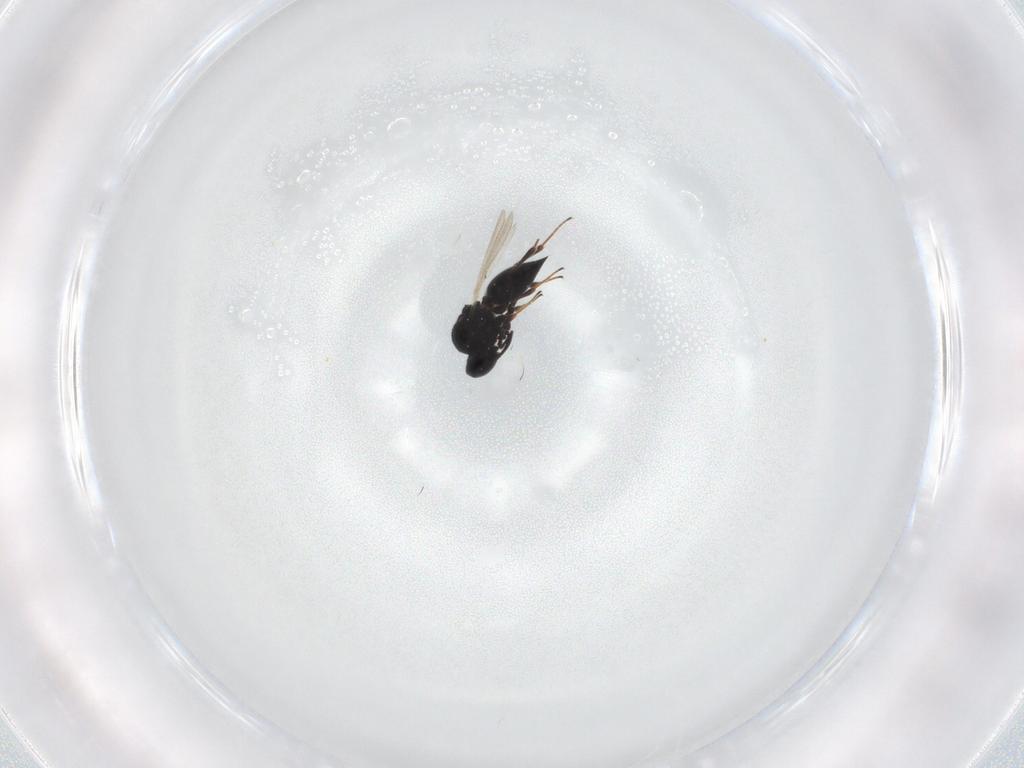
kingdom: Animalia
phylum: Arthropoda
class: Insecta
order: Hymenoptera
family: Platygastridae
